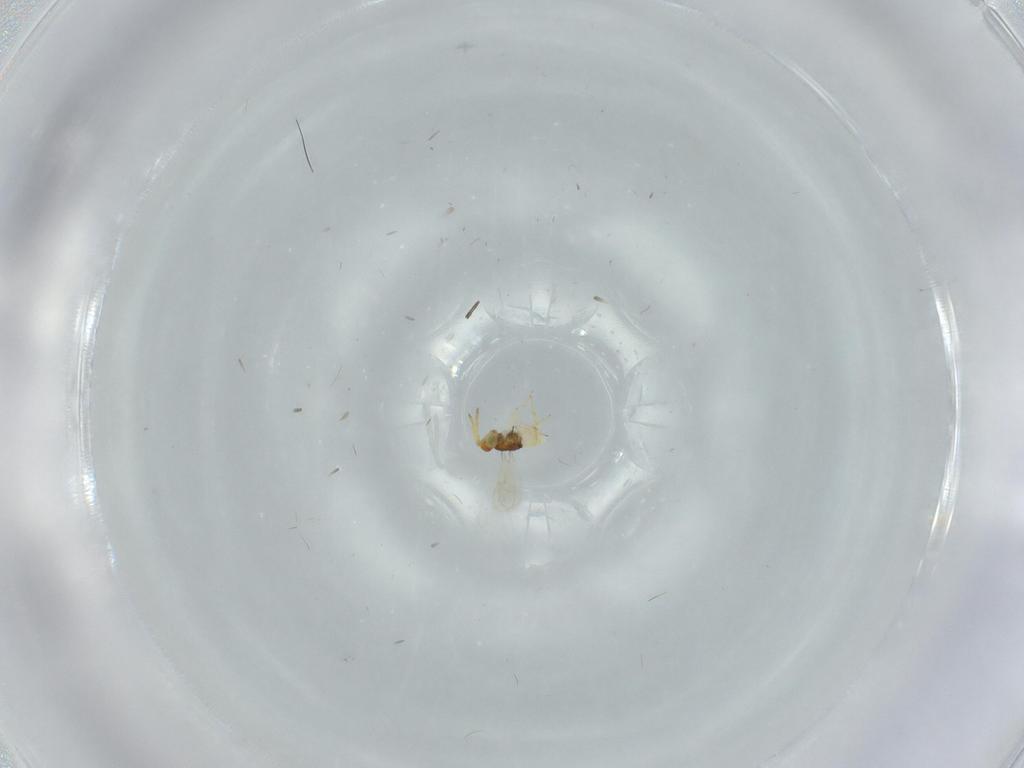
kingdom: Animalia
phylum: Arthropoda
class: Insecta
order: Hymenoptera
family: Aphelinidae
